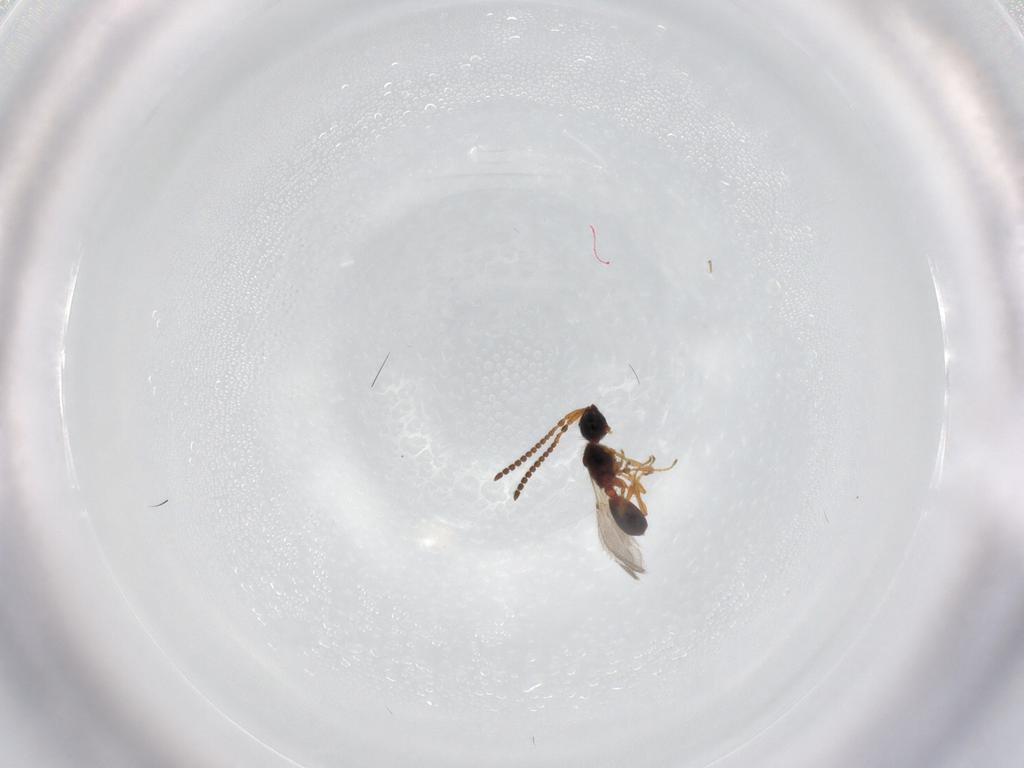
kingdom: Animalia
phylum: Arthropoda
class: Insecta
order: Hymenoptera
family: Diapriidae
